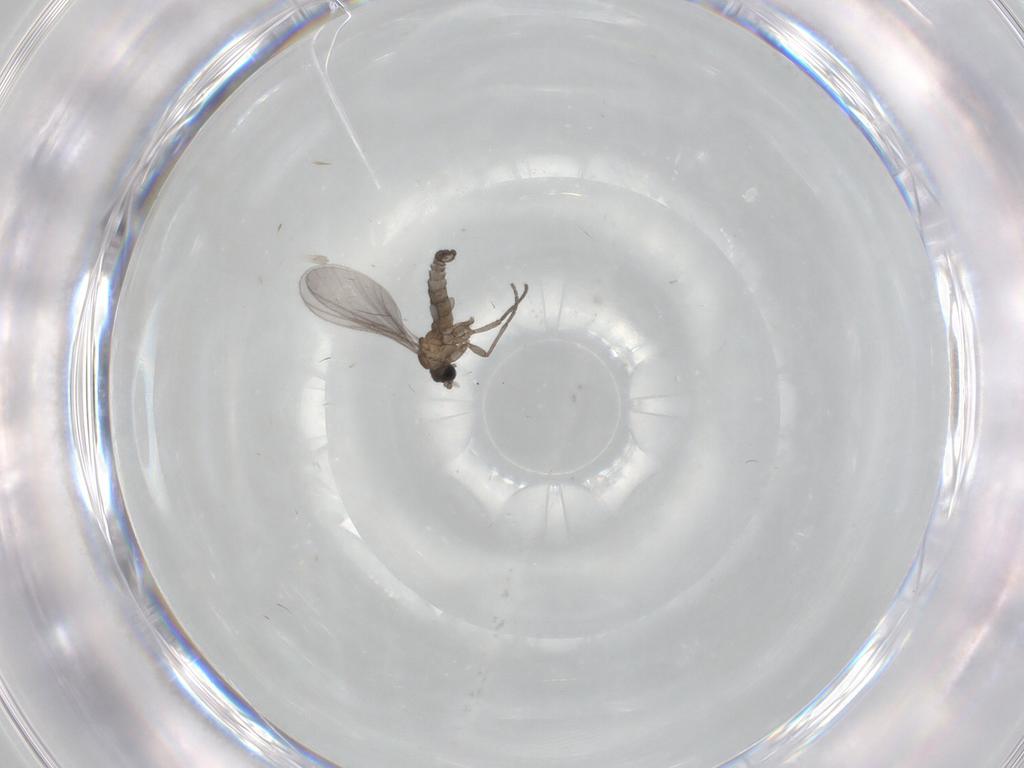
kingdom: Animalia
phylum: Arthropoda
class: Insecta
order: Diptera
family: Sciaridae
